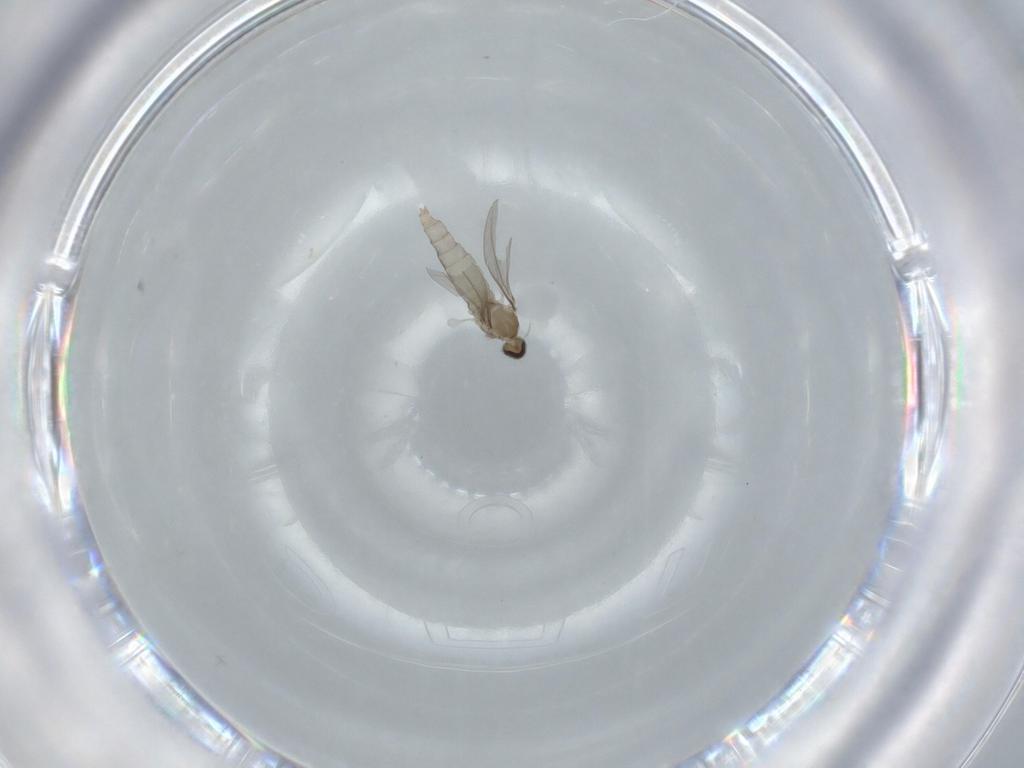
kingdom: Animalia
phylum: Arthropoda
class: Insecta
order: Diptera
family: Cecidomyiidae
